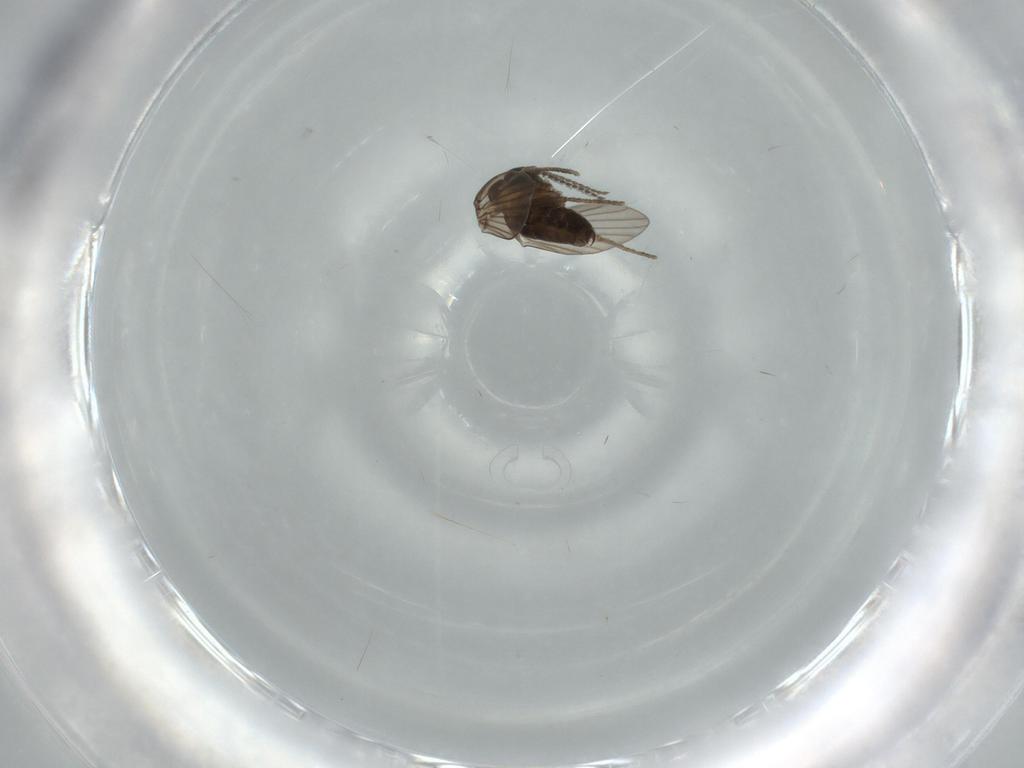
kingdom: Animalia
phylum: Arthropoda
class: Insecta
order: Diptera
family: Psychodidae
